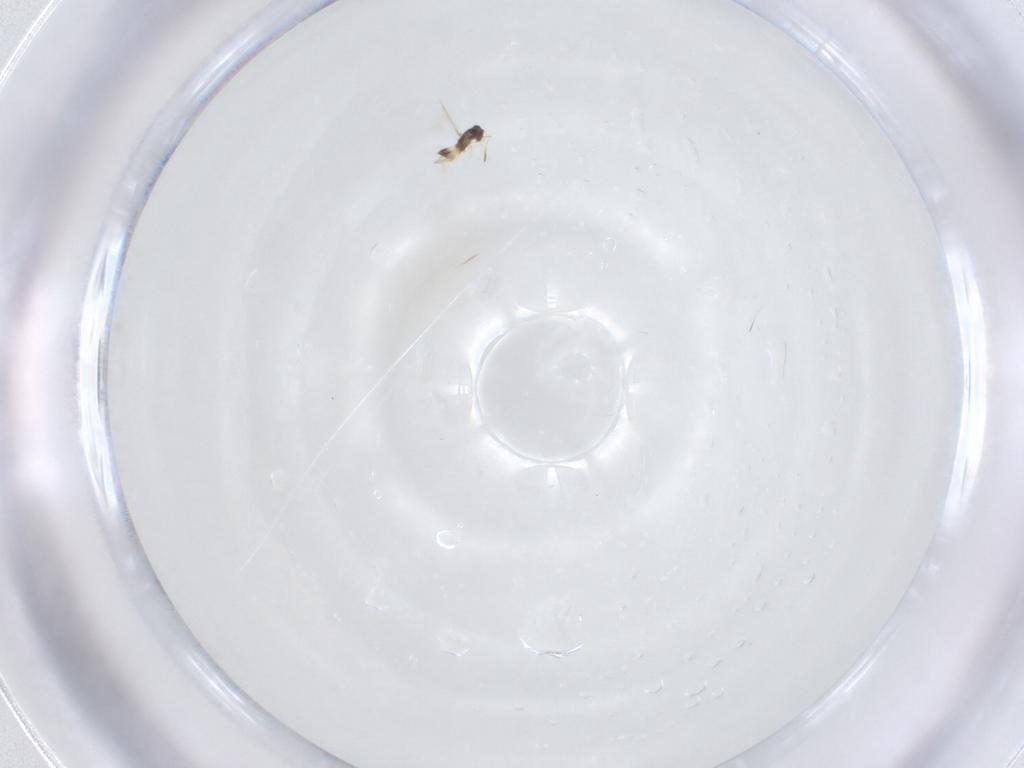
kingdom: Animalia
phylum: Arthropoda
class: Insecta
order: Hymenoptera
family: Mymaridae
